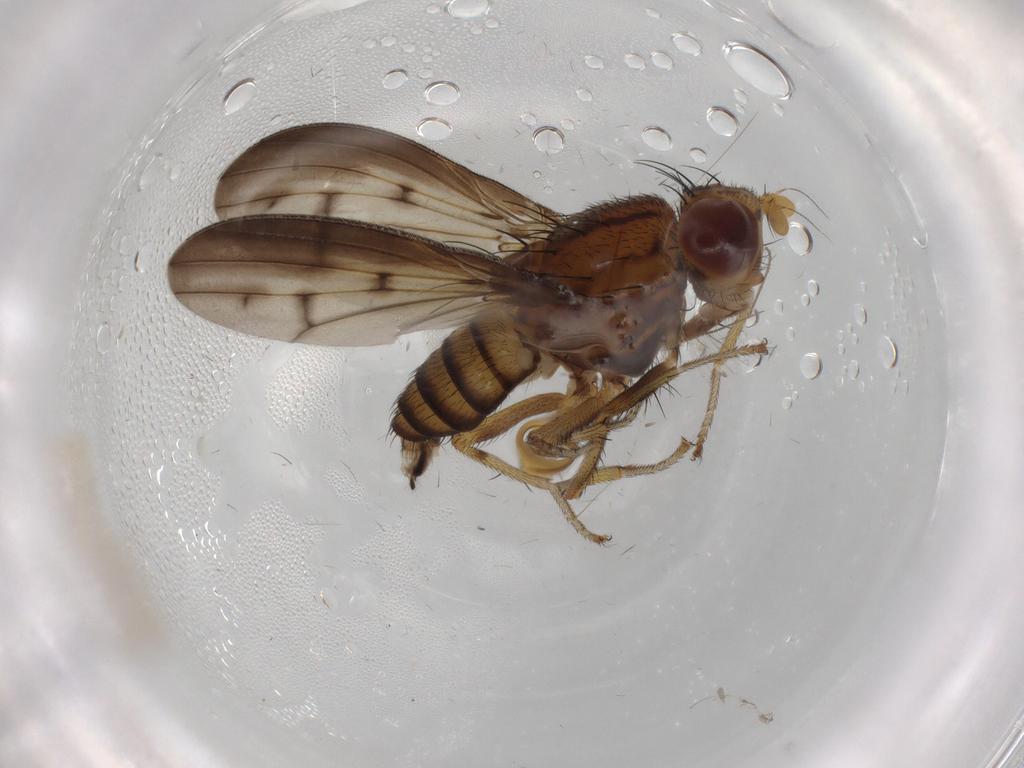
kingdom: Animalia
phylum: Arthropoda
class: Insecta
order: Diptera
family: Lauxaniidae
